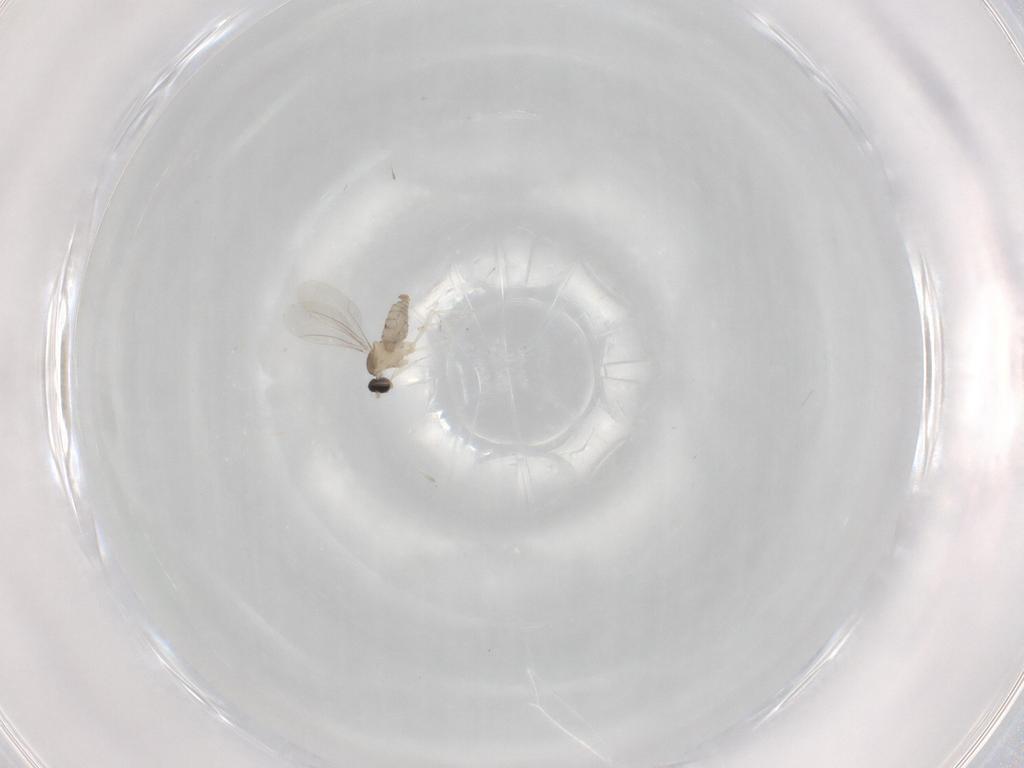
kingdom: Animalia
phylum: Arthropoda
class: Insecta
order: Diptera
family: Cecidomyiidae
